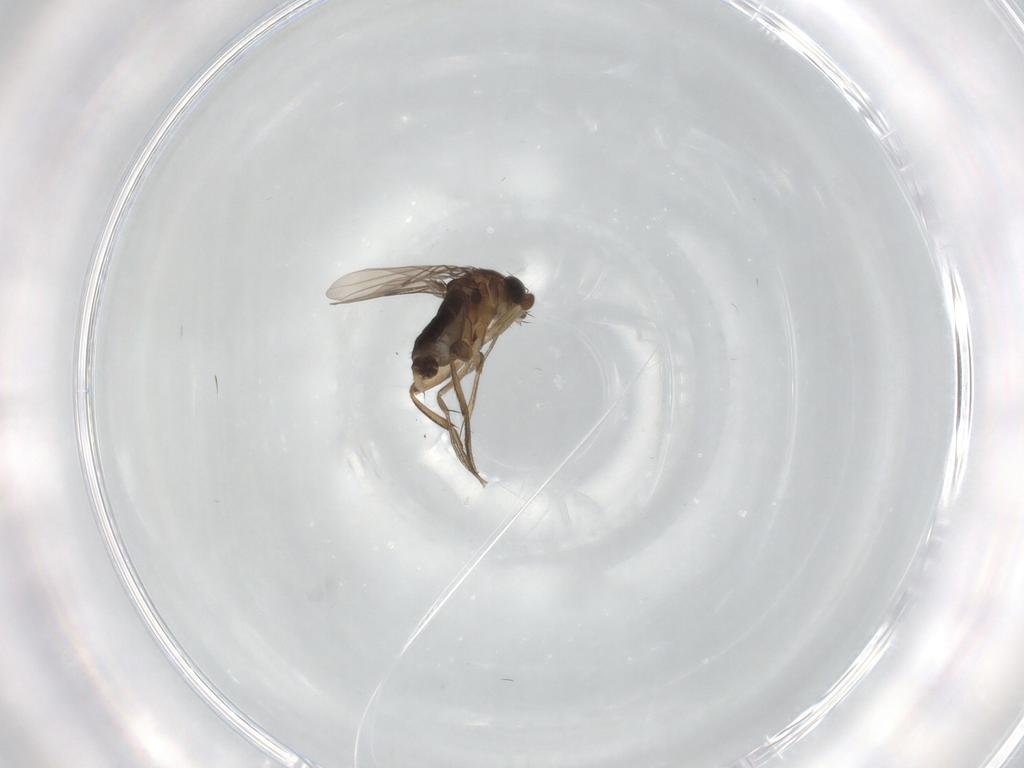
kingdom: Animalia
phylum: Arthropoda
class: Insecta
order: Diptera
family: Phoridae
